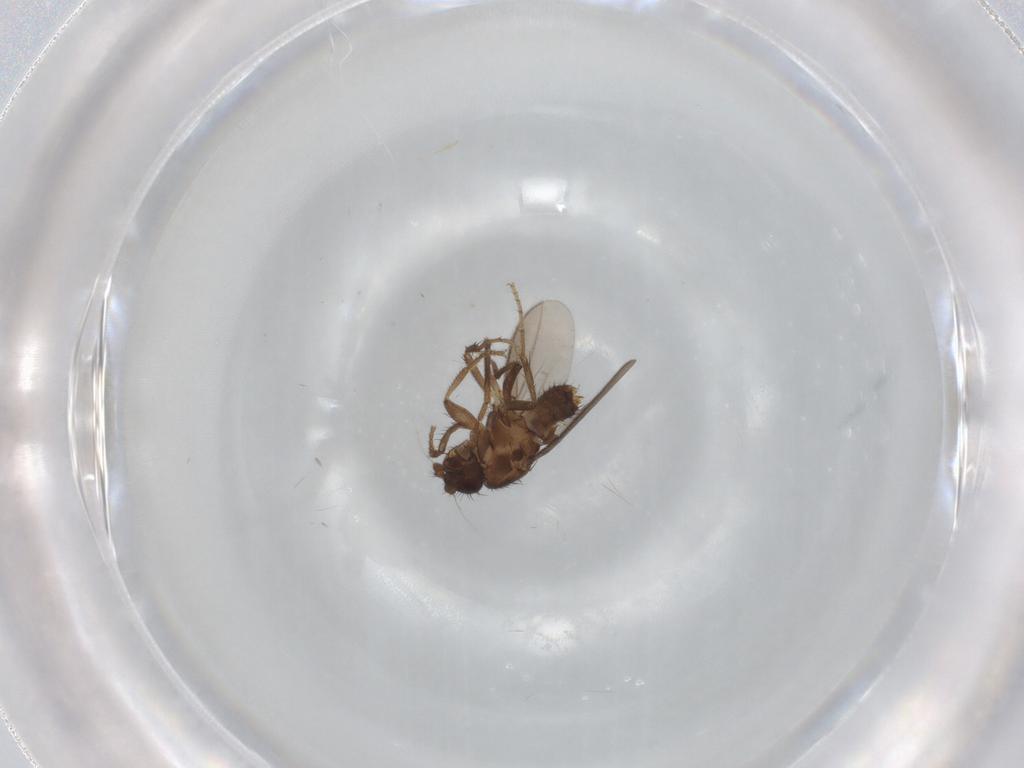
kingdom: Animalia
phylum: Arthropoda
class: Insecta
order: Diptera
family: Sphaeroceridae
